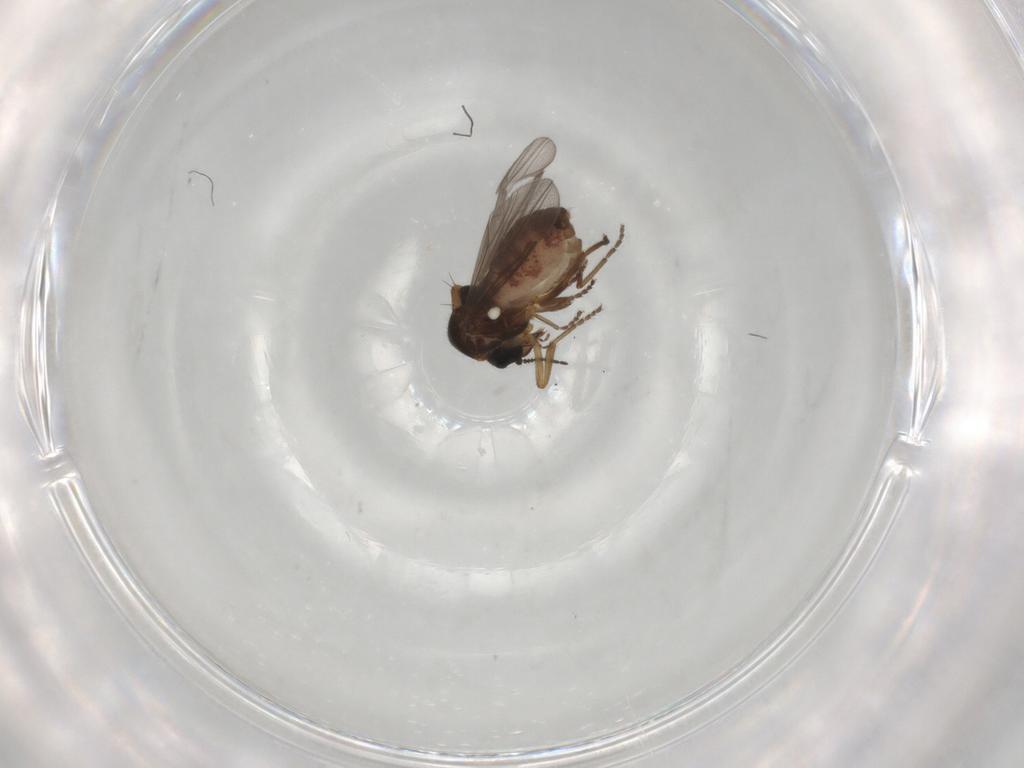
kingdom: Animalia
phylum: Arthropoda
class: Insecta
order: Diptera
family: Ceratopogonidae
